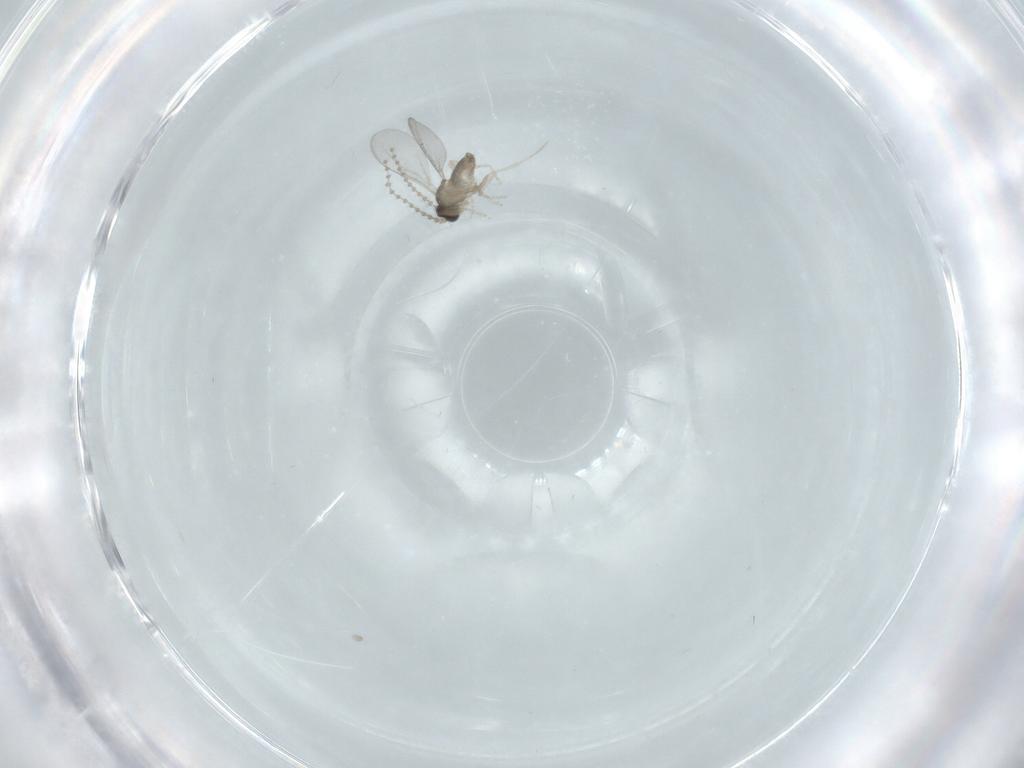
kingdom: Animalia
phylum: Arthropoda
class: Insecta
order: Diptera
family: Cecidomyiidae
